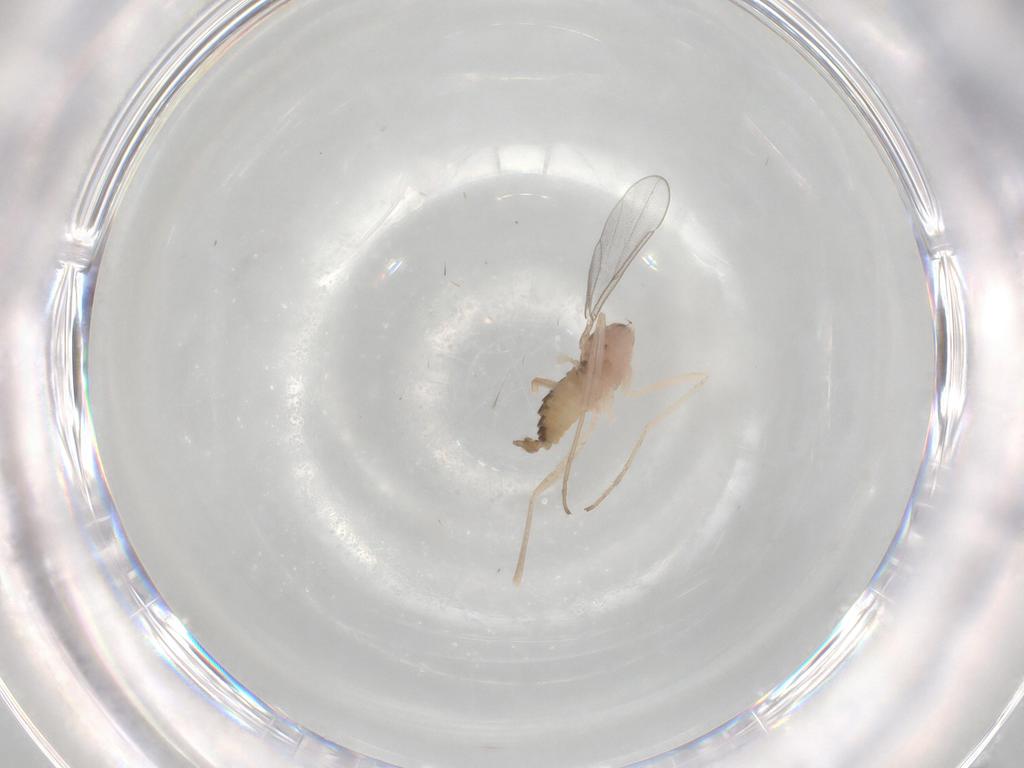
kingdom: Animalia
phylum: Arthropoda
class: Insecta
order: Diptera
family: Cecidomyiidae
